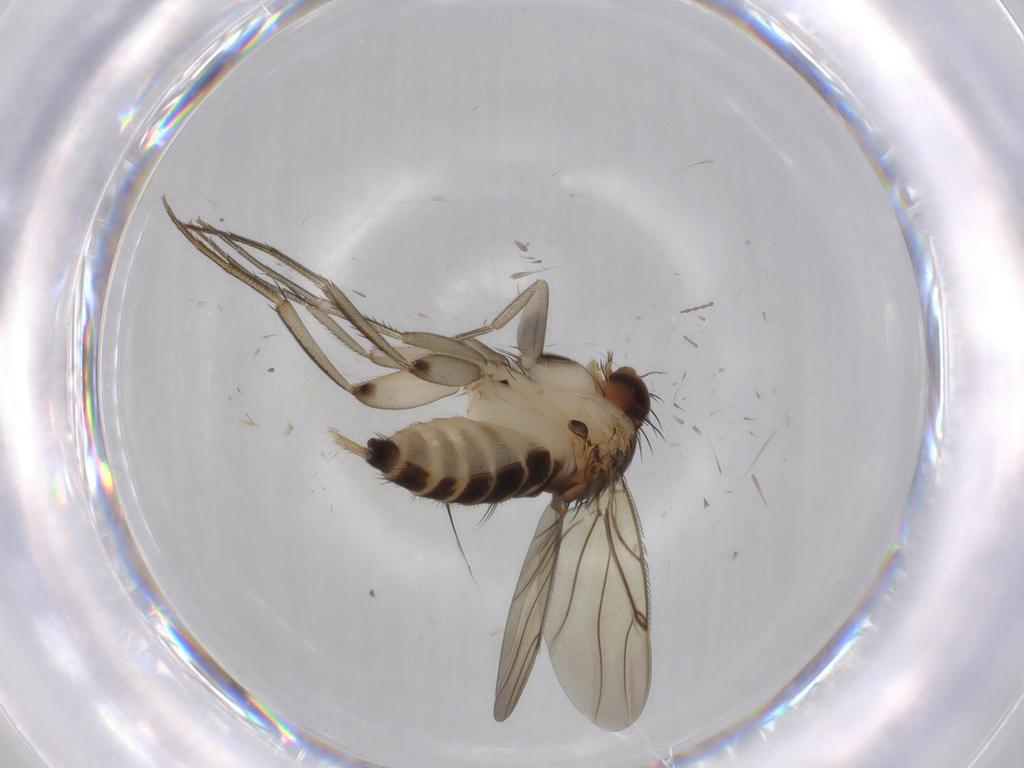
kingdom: Animalia
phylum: Arthropoda
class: Insecta
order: Diptera
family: Phoridae
